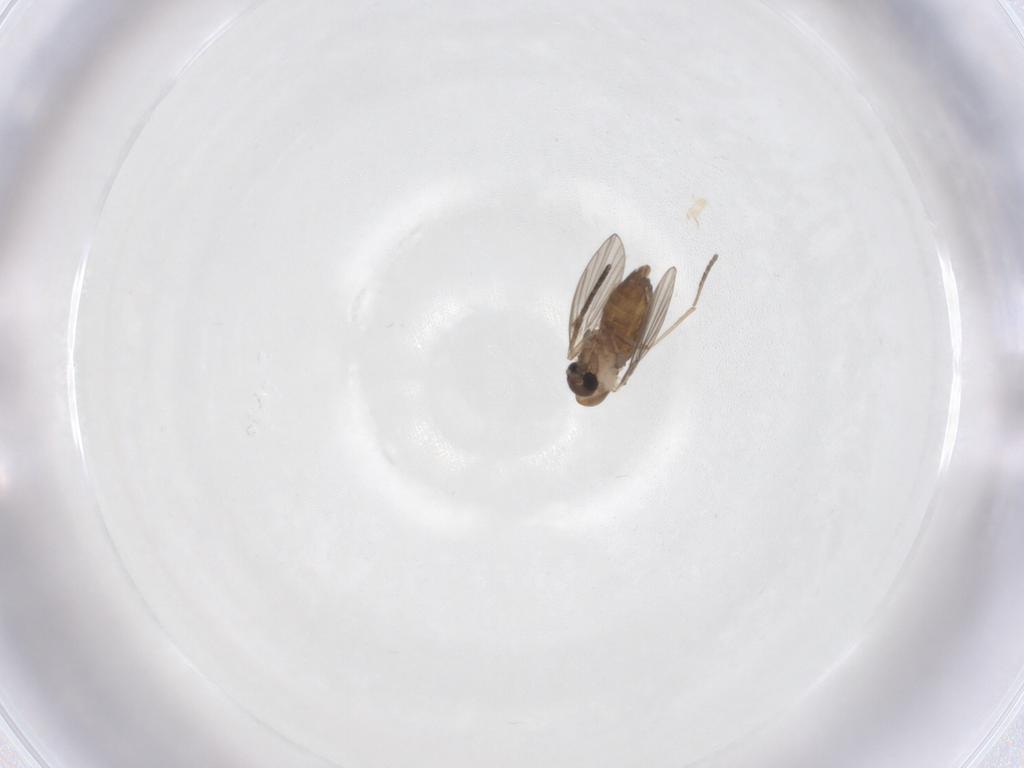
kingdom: Animalia
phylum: Arthropoda
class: Insecta
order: Diptera
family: Psychodidae
